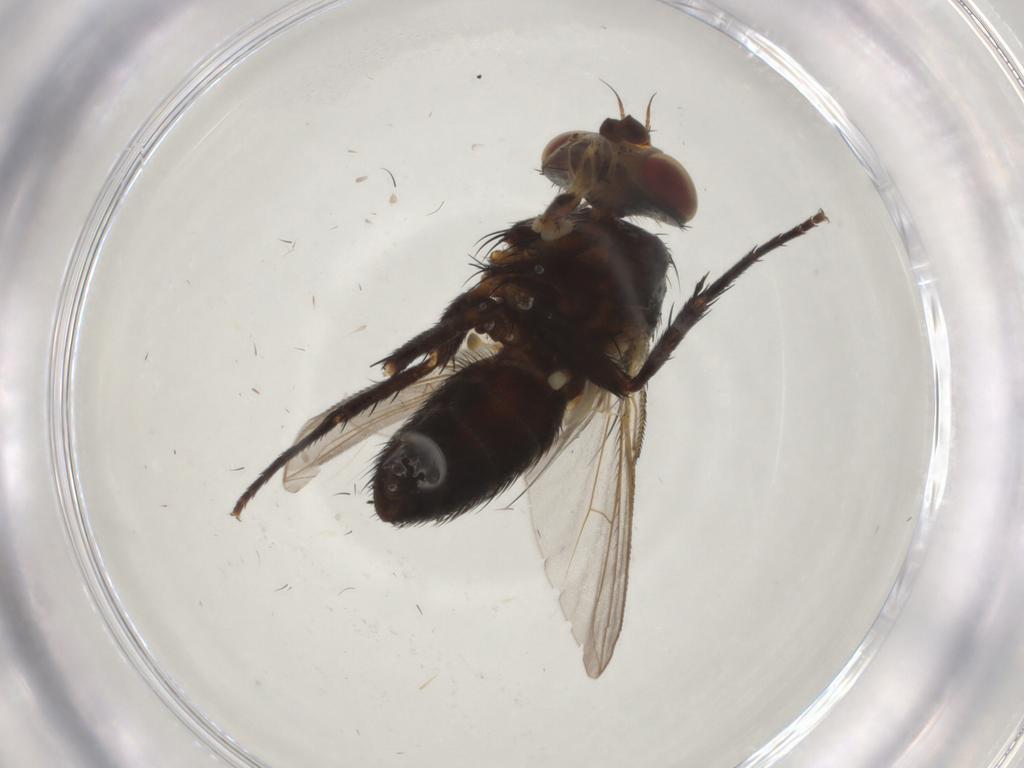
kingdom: Animalia
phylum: Arthropoda
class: Insecta
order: Diptera
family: Tachinidae
